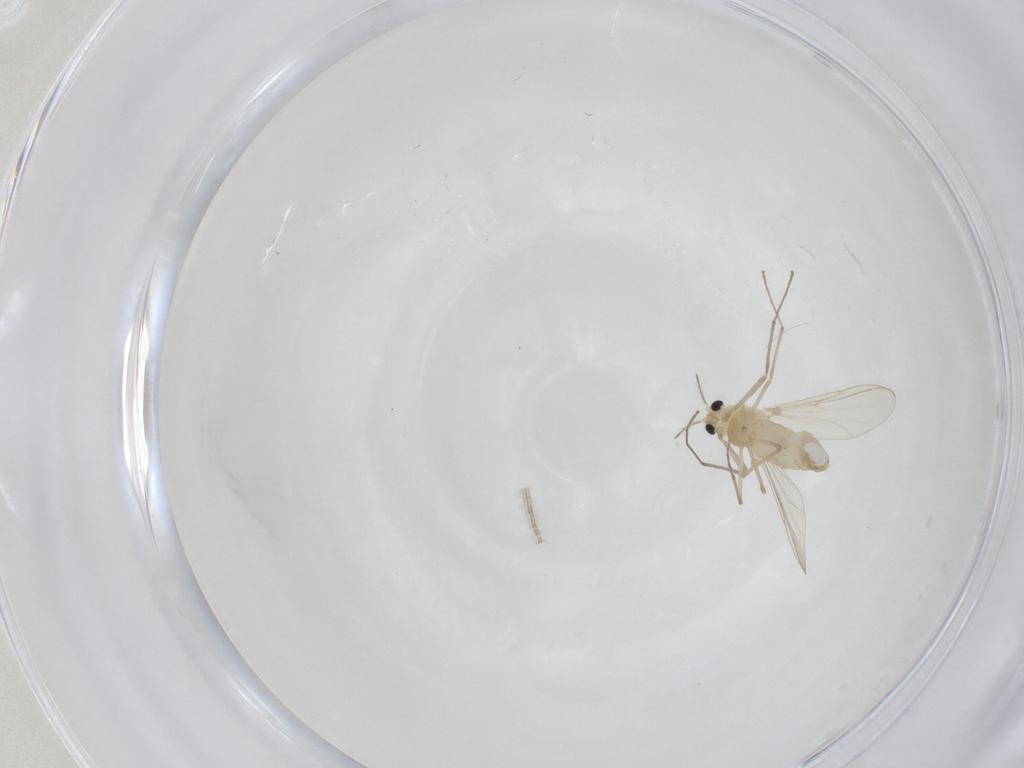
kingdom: Animalia
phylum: Arthropoda
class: Insecta
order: Diptera
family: Chironomidae
